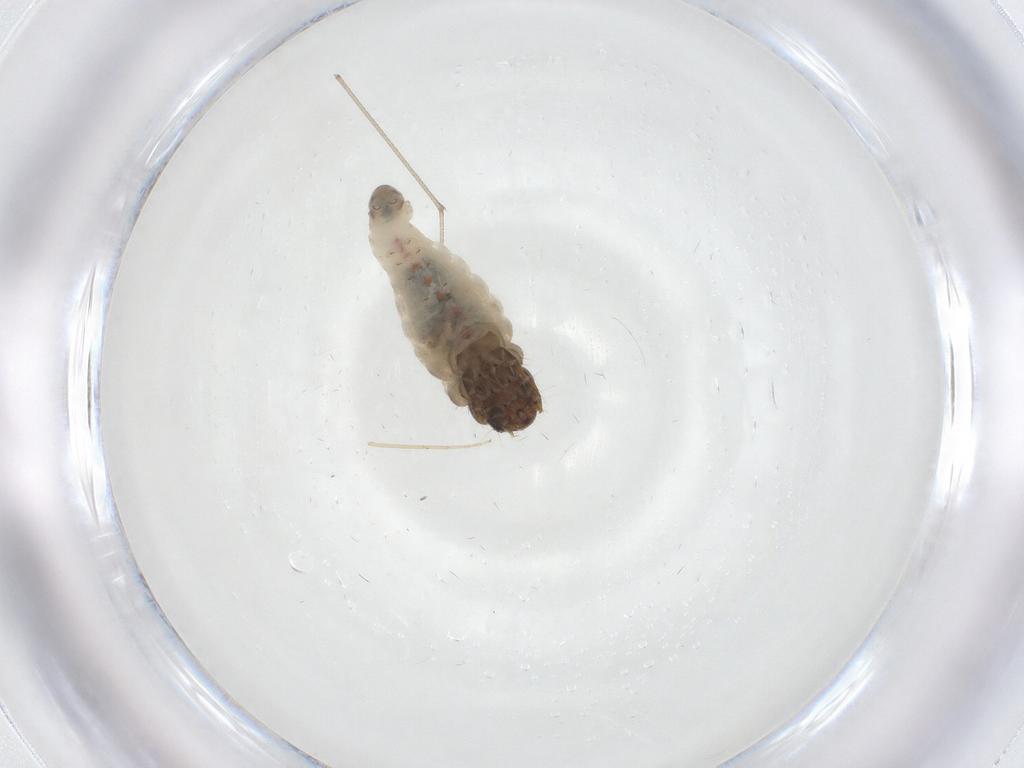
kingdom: Animalia
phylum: Arthropoda
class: Insecta
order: Lepidoptera
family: Psychidae
